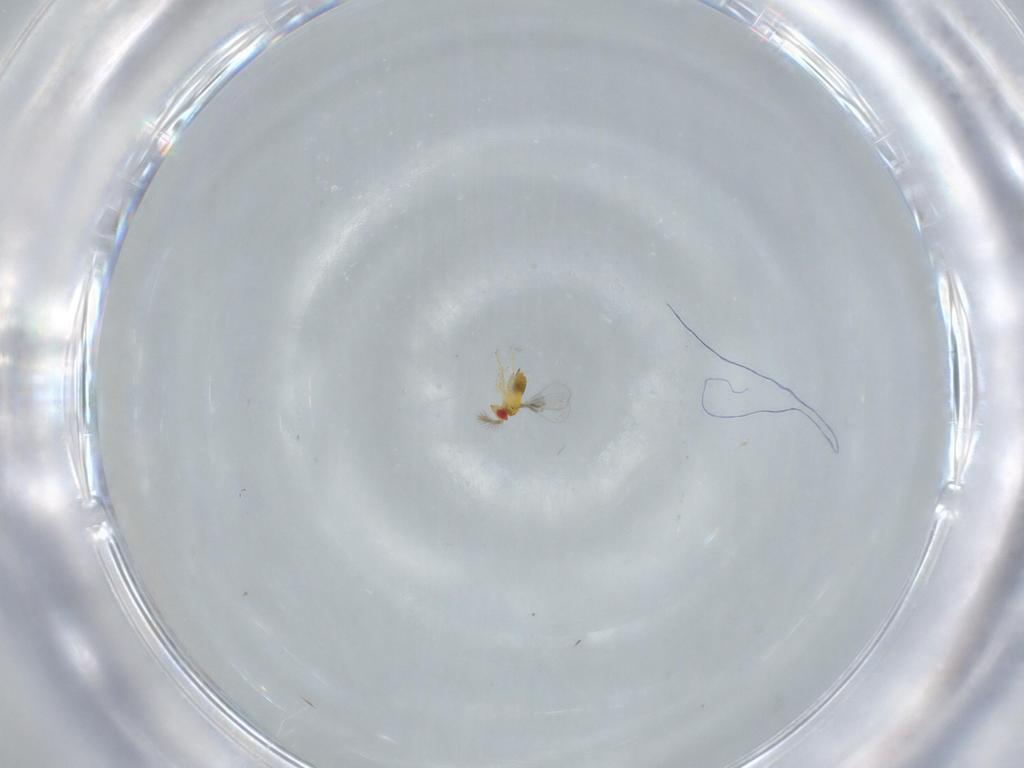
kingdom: Animalia
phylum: Arthropoda
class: Insecta
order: Hymenoptera
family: Trichogrammatidae
